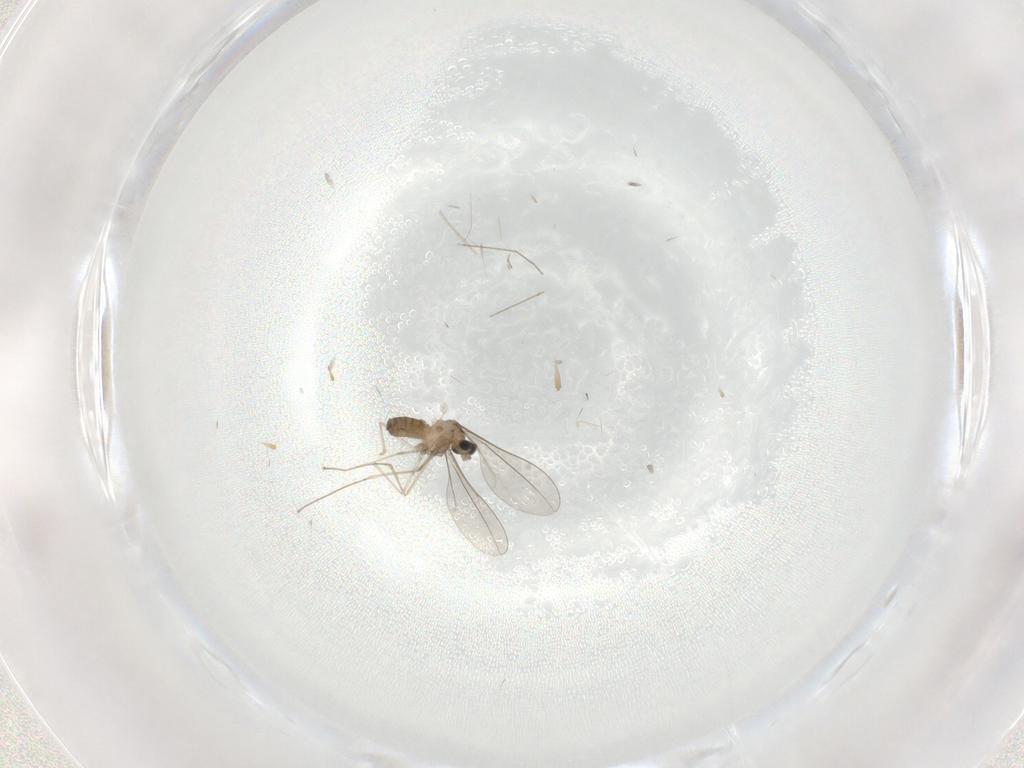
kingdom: Animalia
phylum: Arthropoda
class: Insecta
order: Diptera
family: Cecidomyiidae
